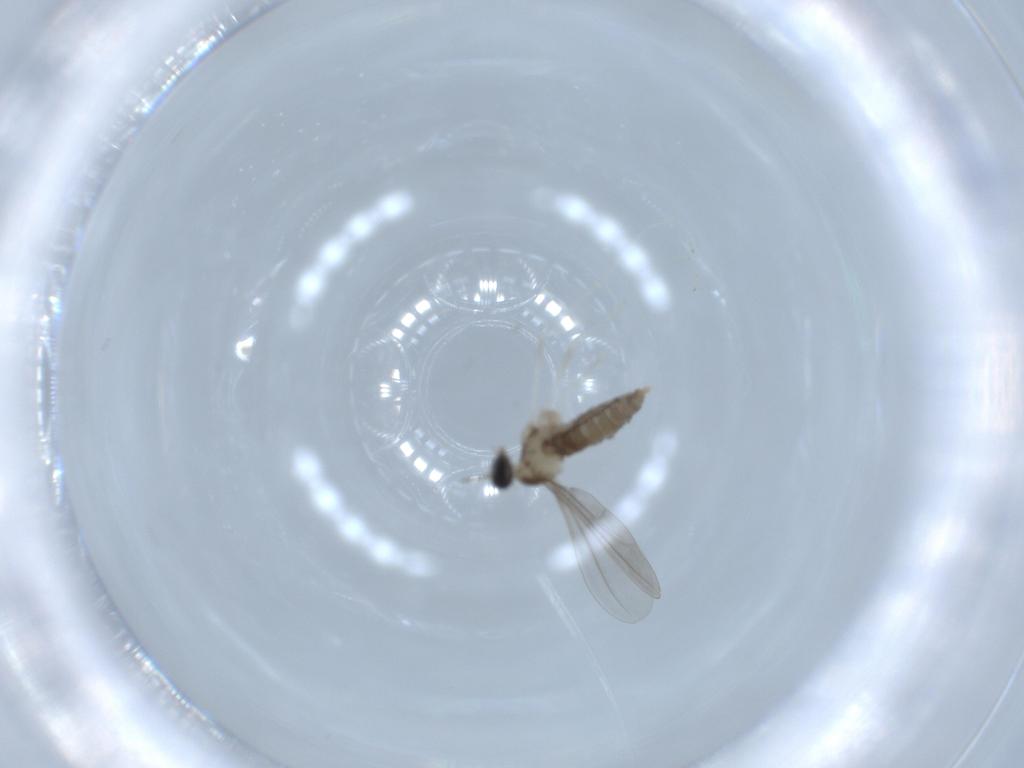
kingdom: Animalia
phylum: Arthropoda
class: Insecta
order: Diptera
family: Cecidomyiidae
